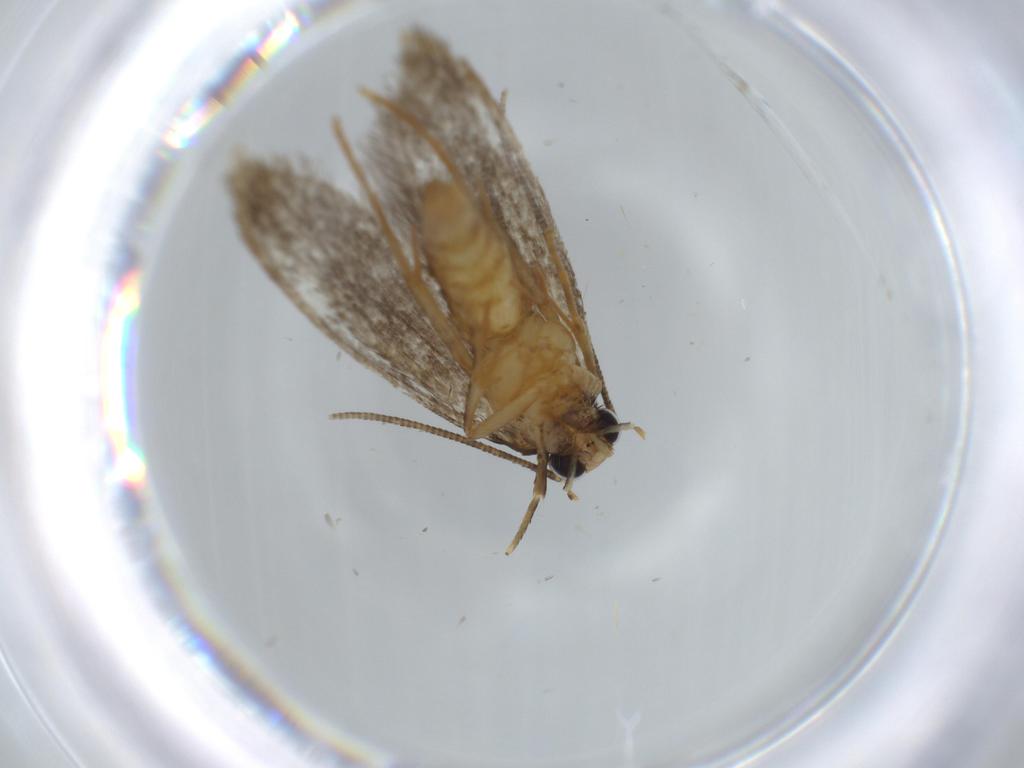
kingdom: Animalia
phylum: Arthropoda
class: Insecta
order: Lepidoptera
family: Tineidae
